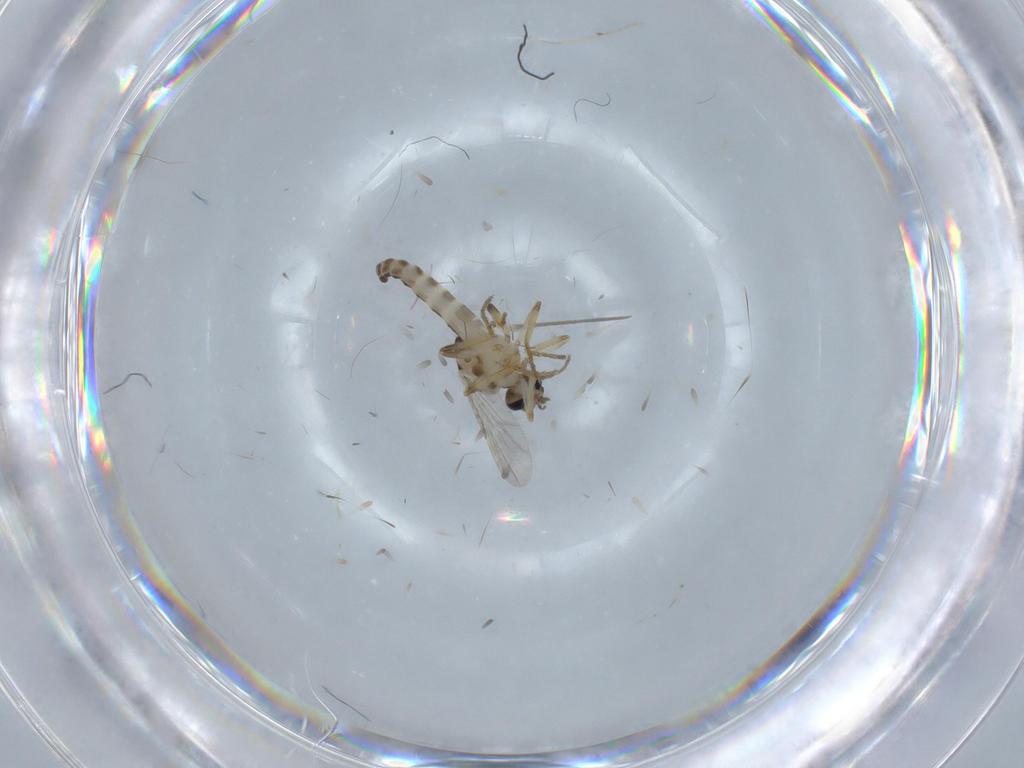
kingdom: Animalia
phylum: Arthropoda
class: Insecta
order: Diptera
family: Ceratopogonidae
